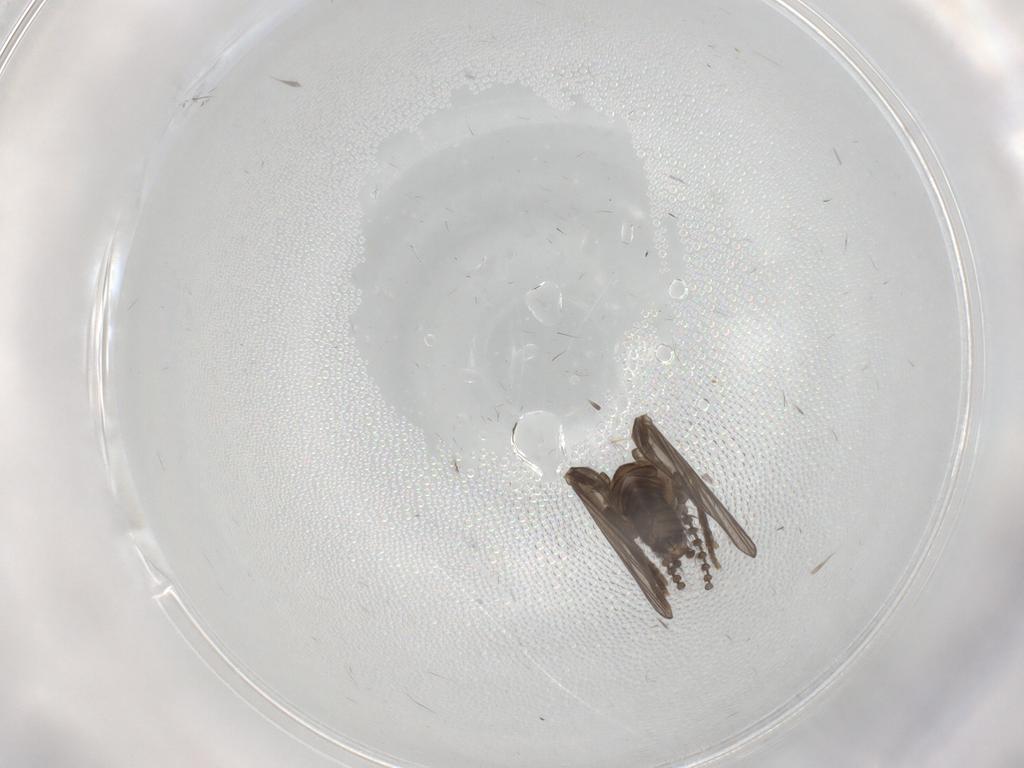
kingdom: Animalia
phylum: Arthropoda
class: Insecta
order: Diptera
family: Psychodidae
